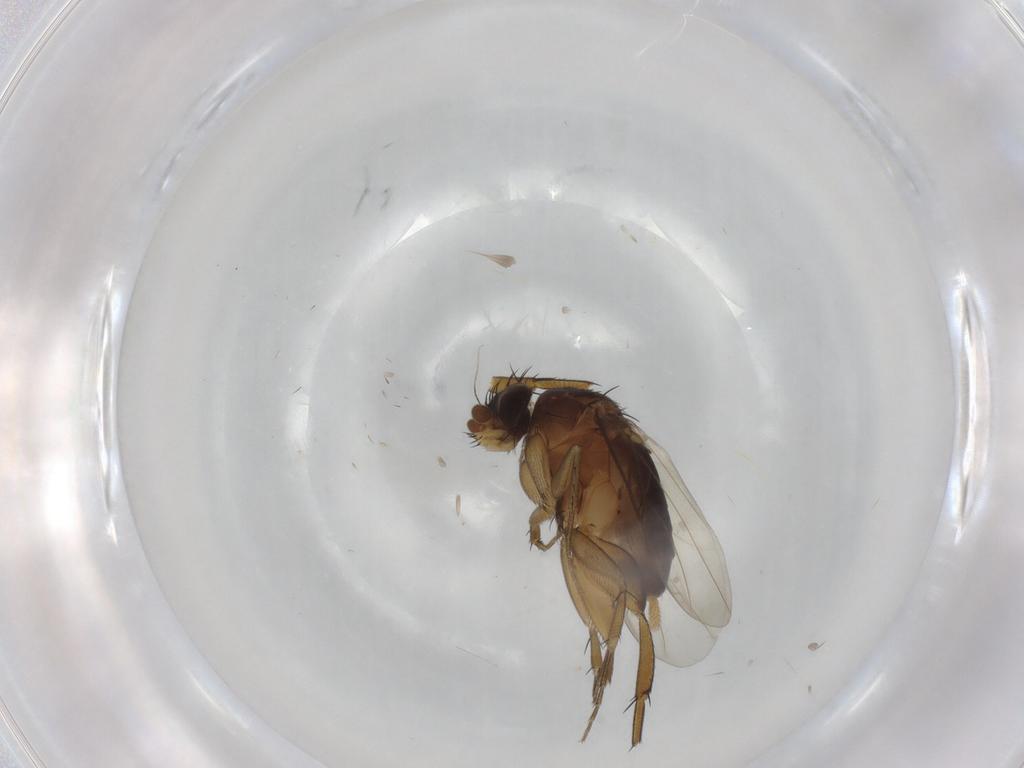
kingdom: Animalia
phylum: Arthropoda
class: Insecta
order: Diptera
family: Phoridae
